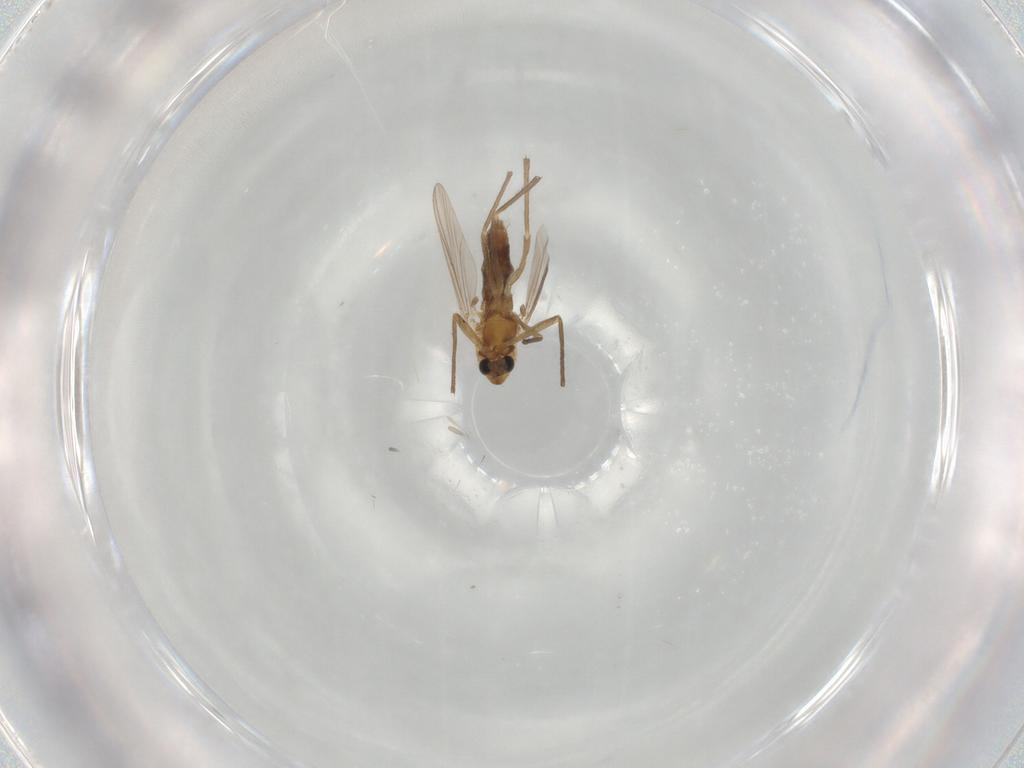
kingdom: Animalia
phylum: Arthropoda
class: Insecta
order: Diptera
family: Chironomidae
